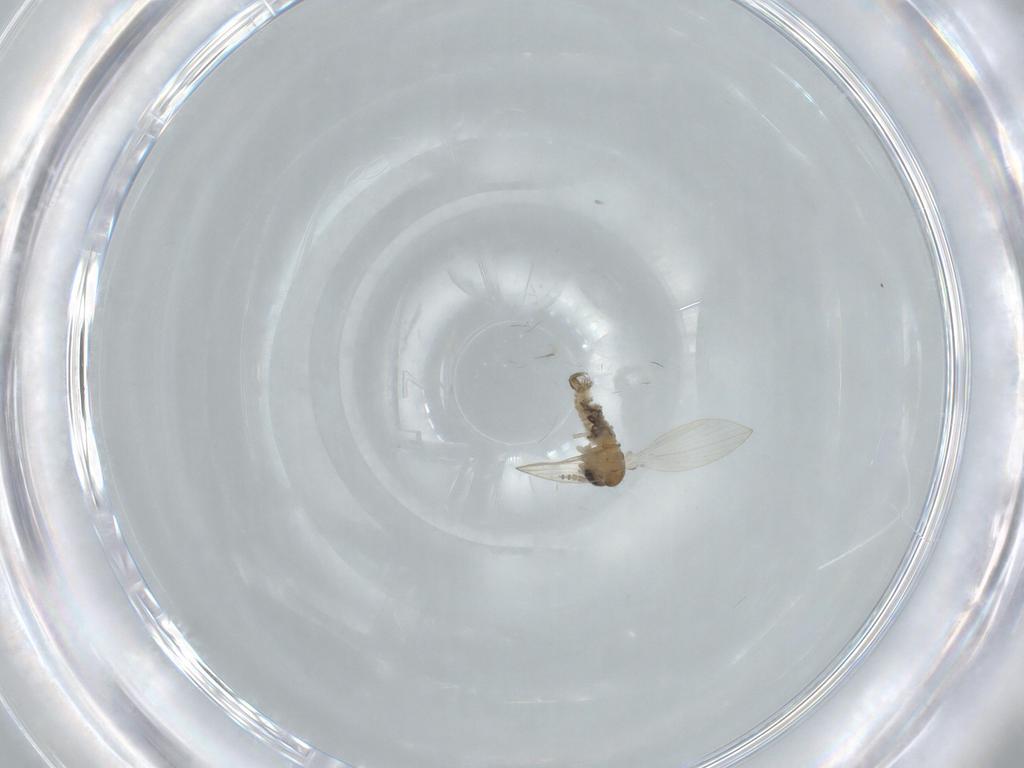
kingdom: Animalia
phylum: Arthropoda
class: Insecta
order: Diptera
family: Psychodidae
